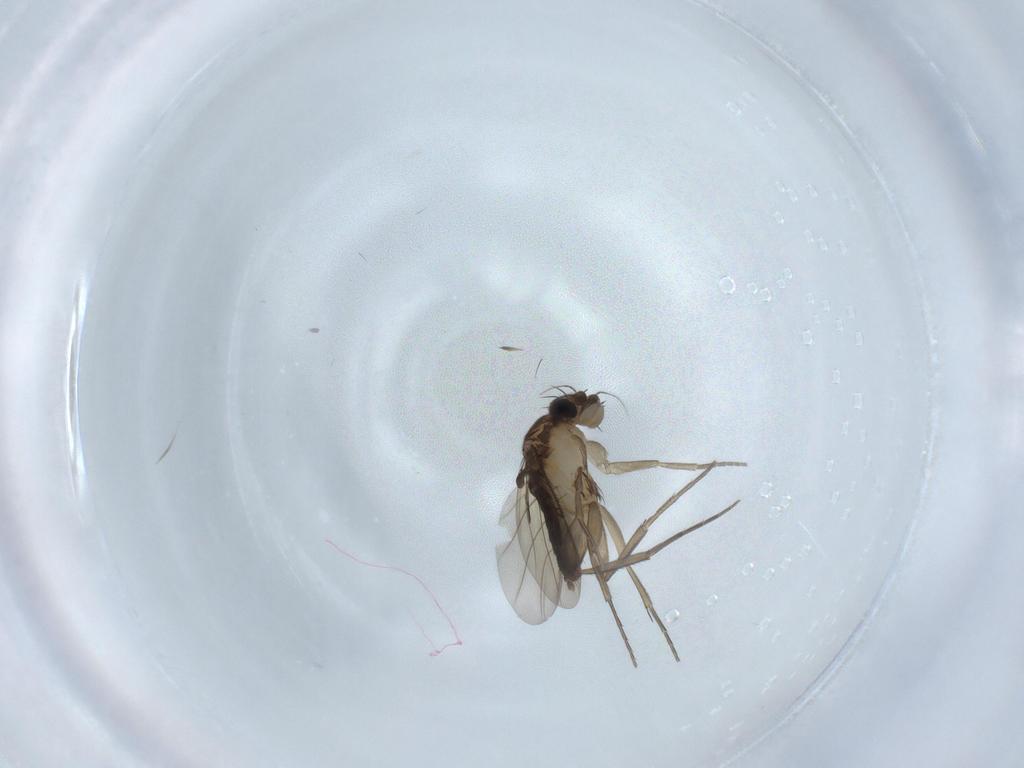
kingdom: Animalia
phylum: Arthropoda
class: Insecta
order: Diptera
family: Phoridae
